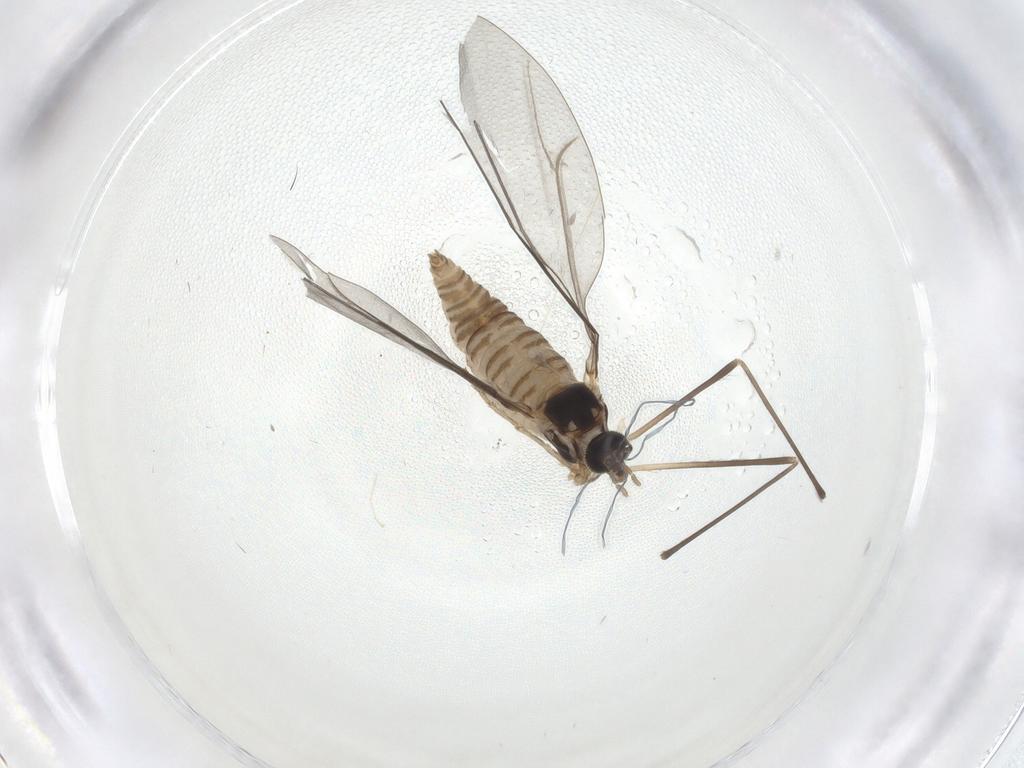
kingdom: Animalia
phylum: Arthropoda
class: Insecta
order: Diptera
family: Cecidomyiidae
